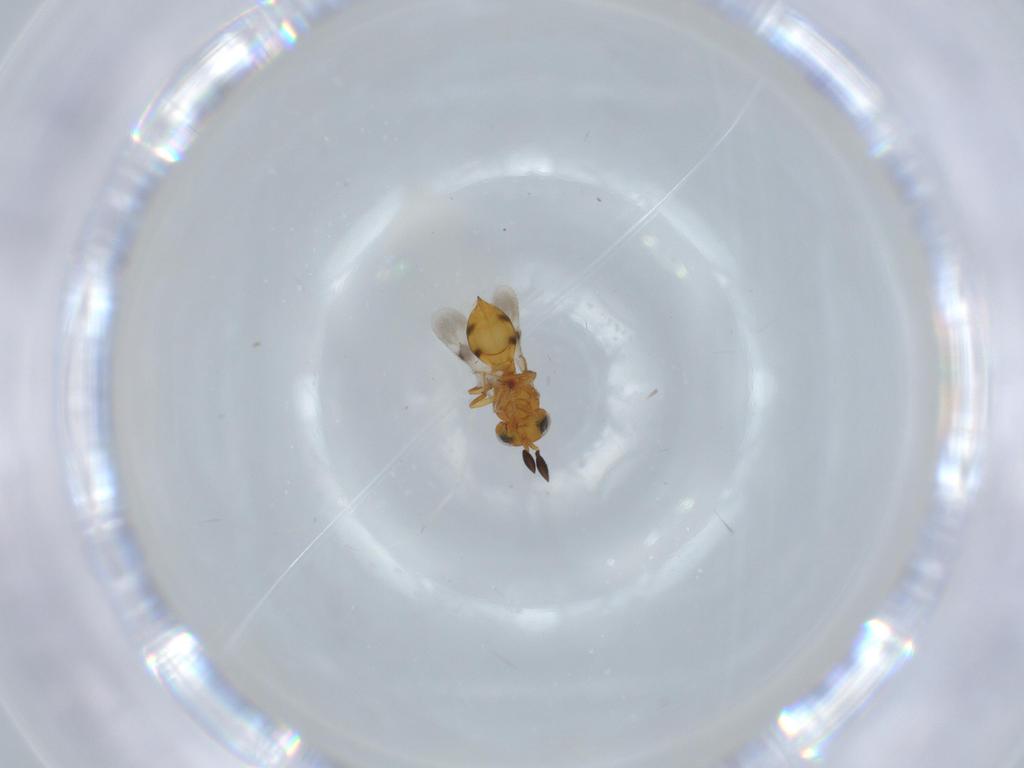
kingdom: Animalia
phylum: Arthropoda
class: Insecta
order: Hymenoptera
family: Scelionidae
